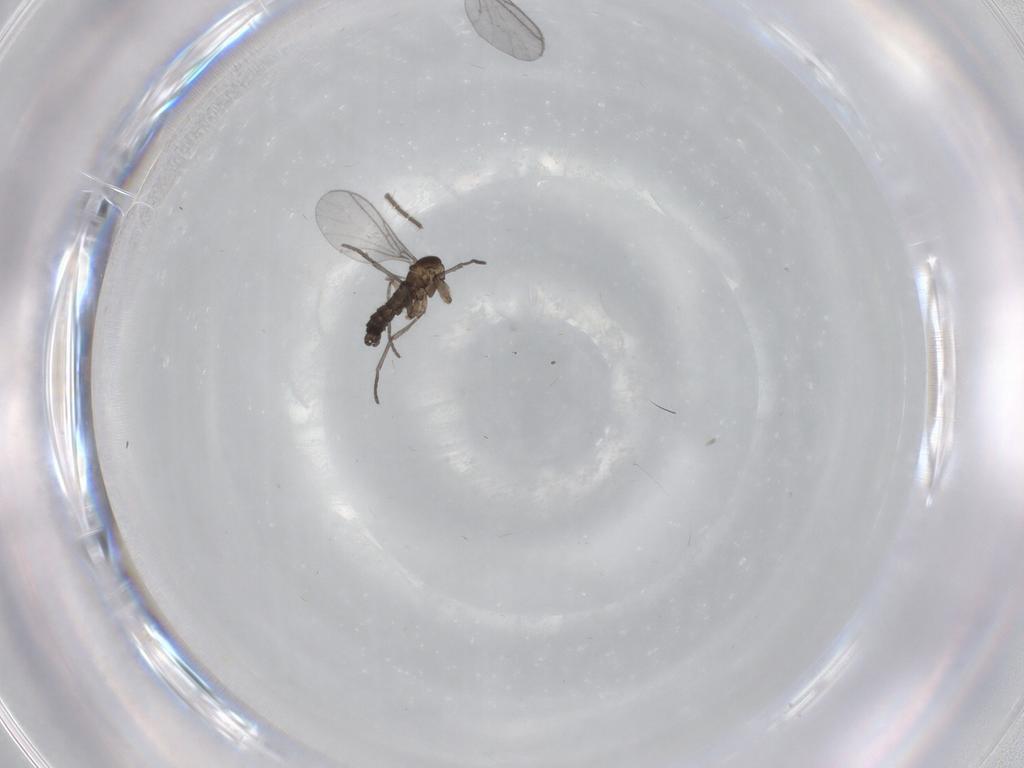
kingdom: Animalia
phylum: Arthropoda
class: Insecta
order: Diptera
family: Sciaridae
